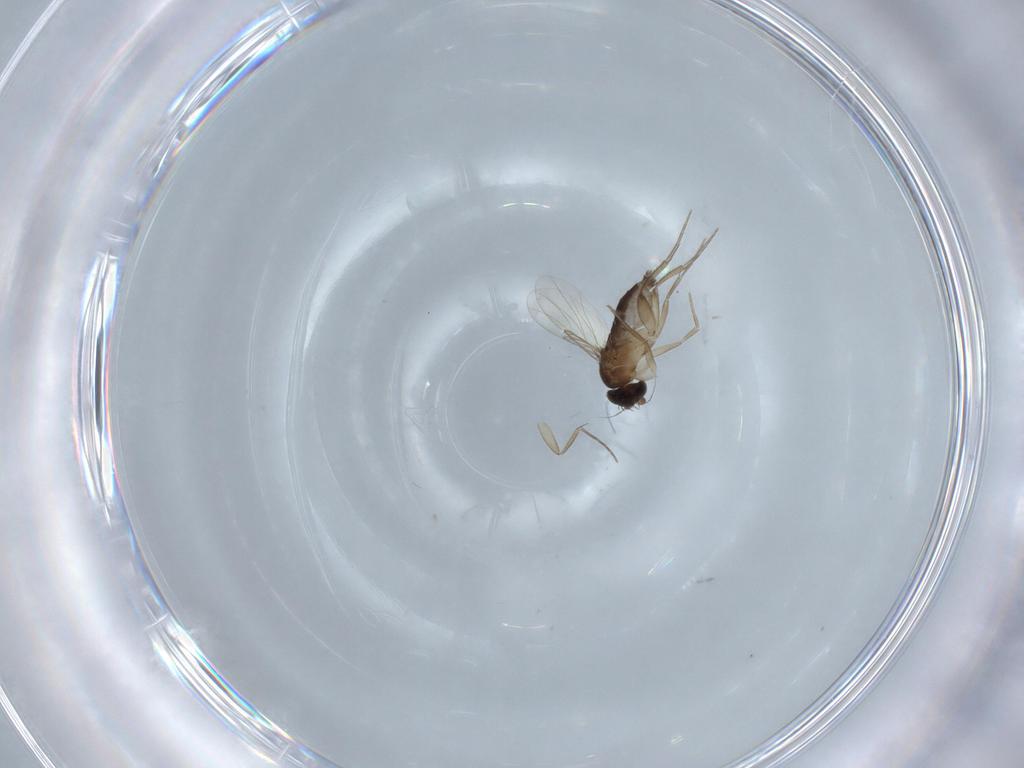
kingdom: Animalia
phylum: Arthropoda
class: Insecta
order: Diptera
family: Phoridae
